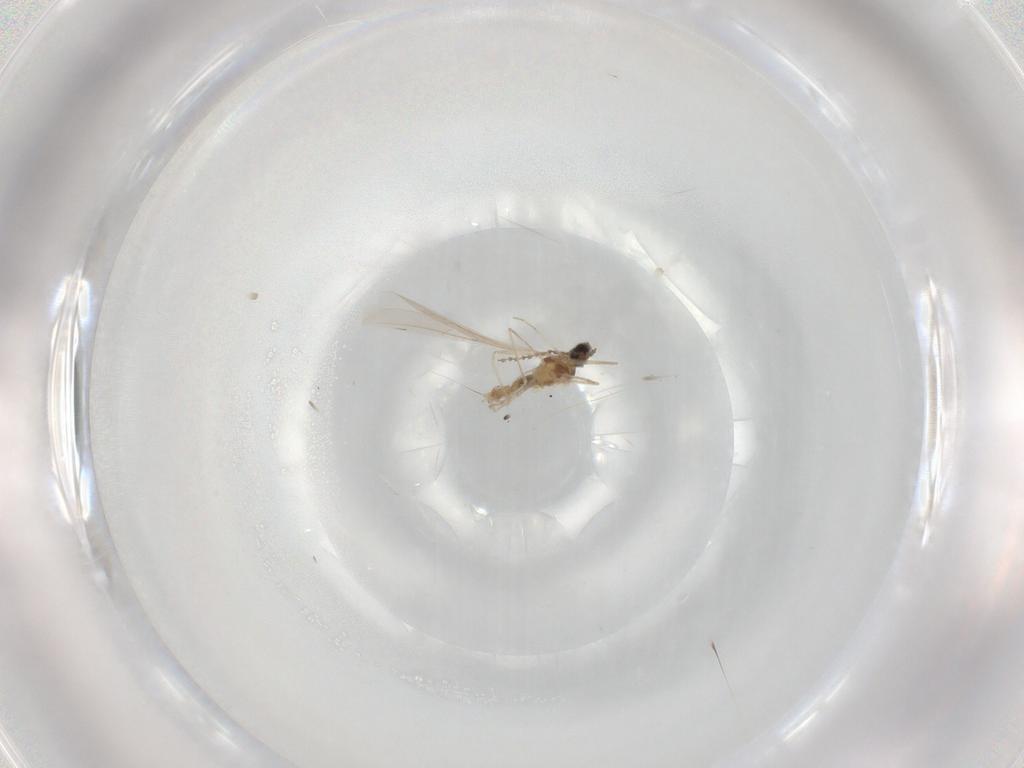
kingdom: Animalia
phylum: Arthropoda
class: Insecta
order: Diptera
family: Cecidomyiidae
